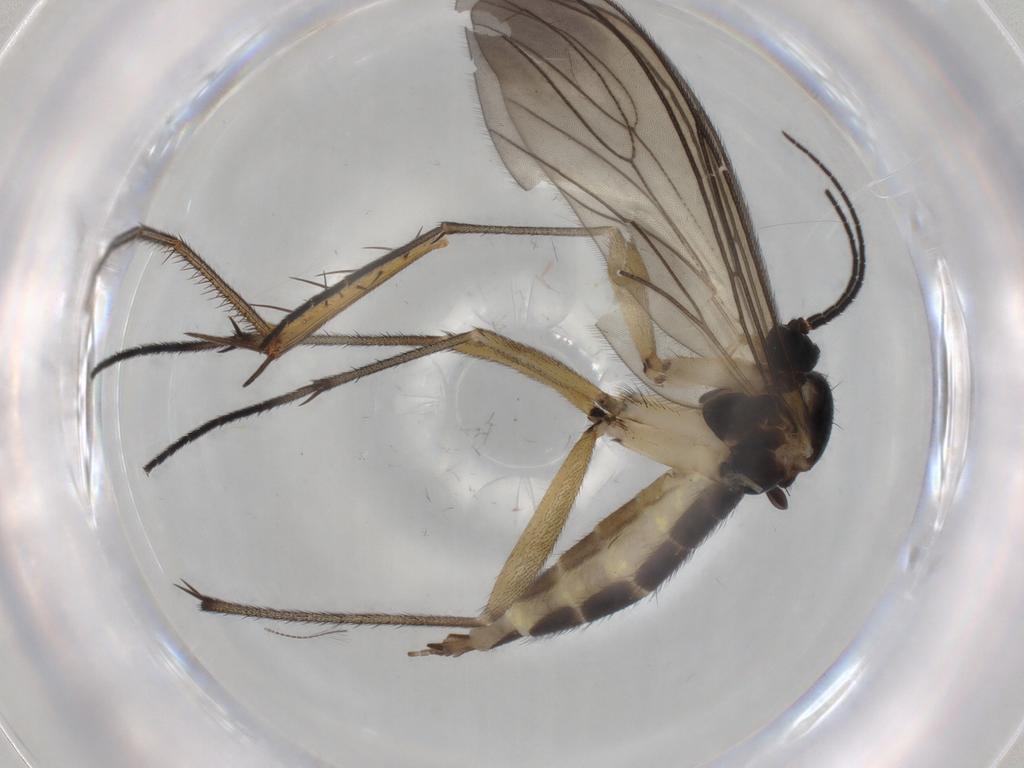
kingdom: Animalia
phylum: Arthropoda
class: Insecta
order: Diptera
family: Sciaridae
